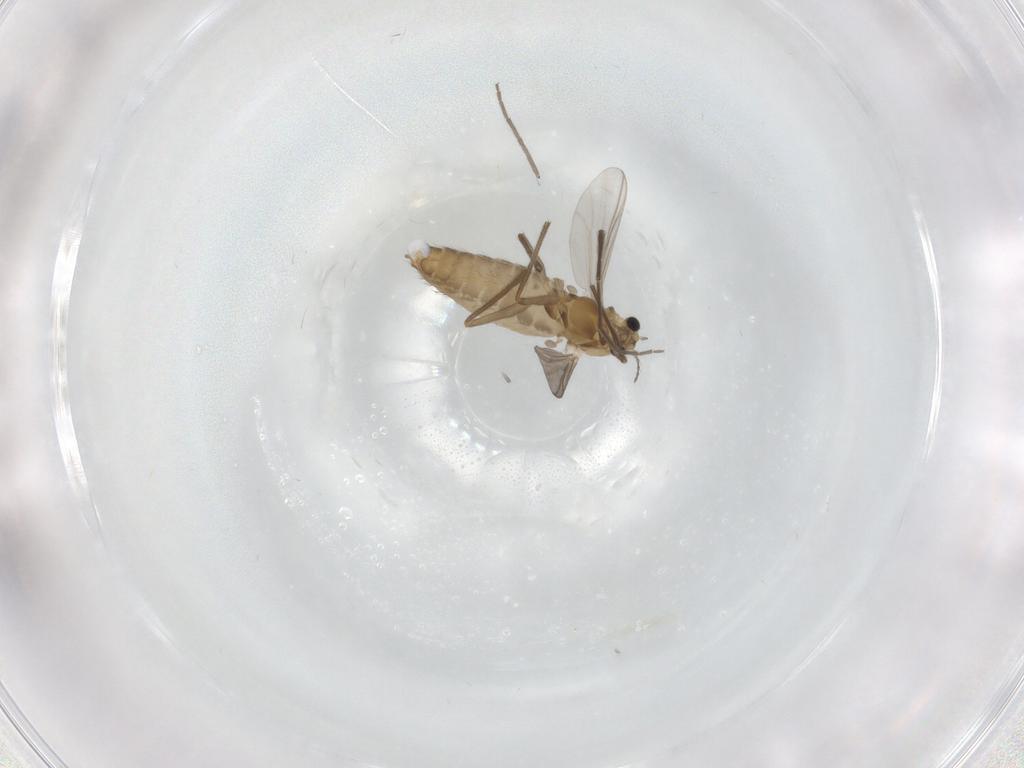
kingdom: Animalia
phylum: Arthropoda
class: Insecta
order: Diptera
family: Chironomidae
